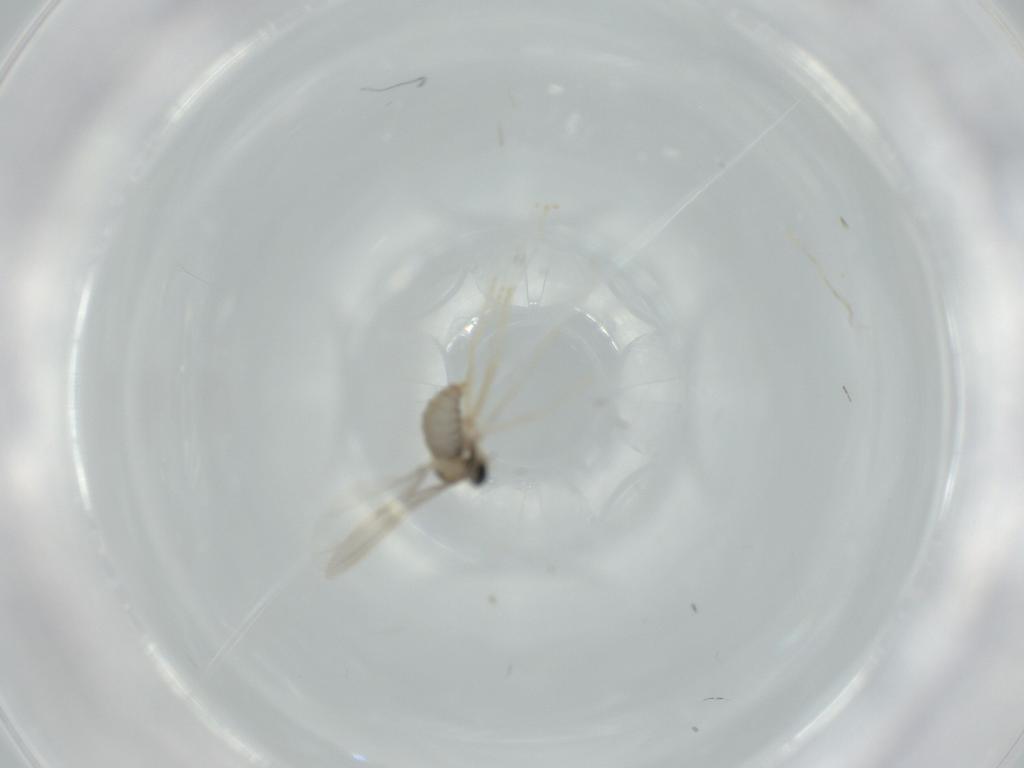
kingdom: Animalia
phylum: Arthropoda
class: Insecta
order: Diptera
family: Cecidomyiidae
